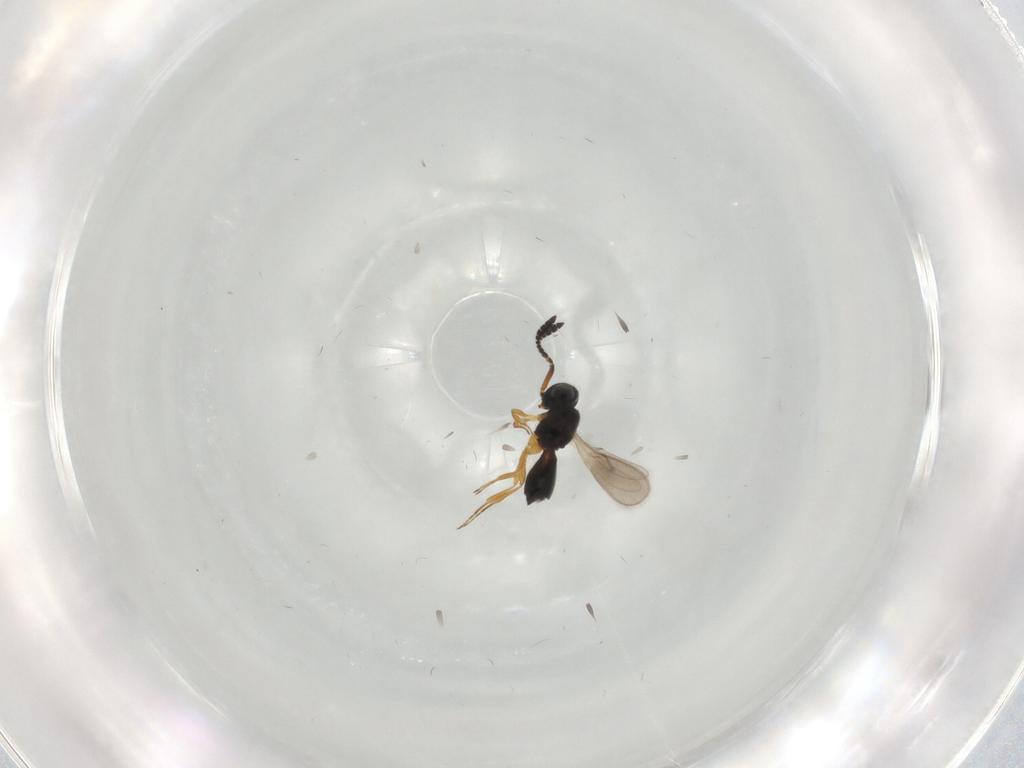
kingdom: Animalia
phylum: Arthropoda
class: Insecta
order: Hymenoptera
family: Scelionidae
